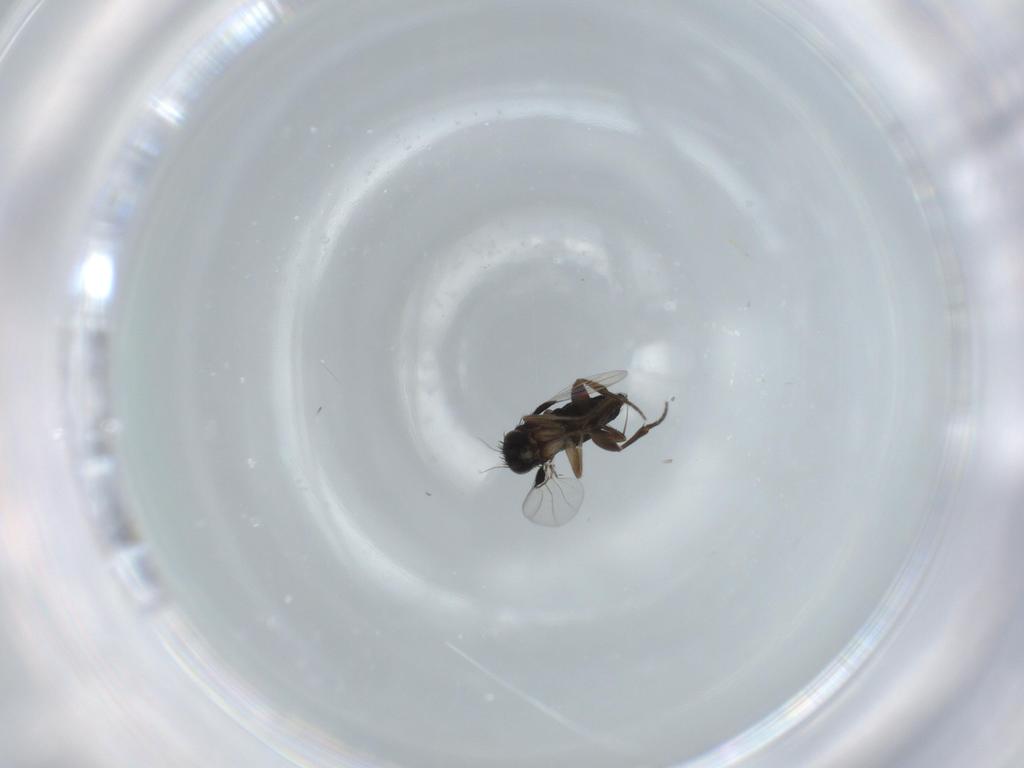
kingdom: Animalia
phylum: Arthropoda
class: Insecta
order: Diptera
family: Phoridae
